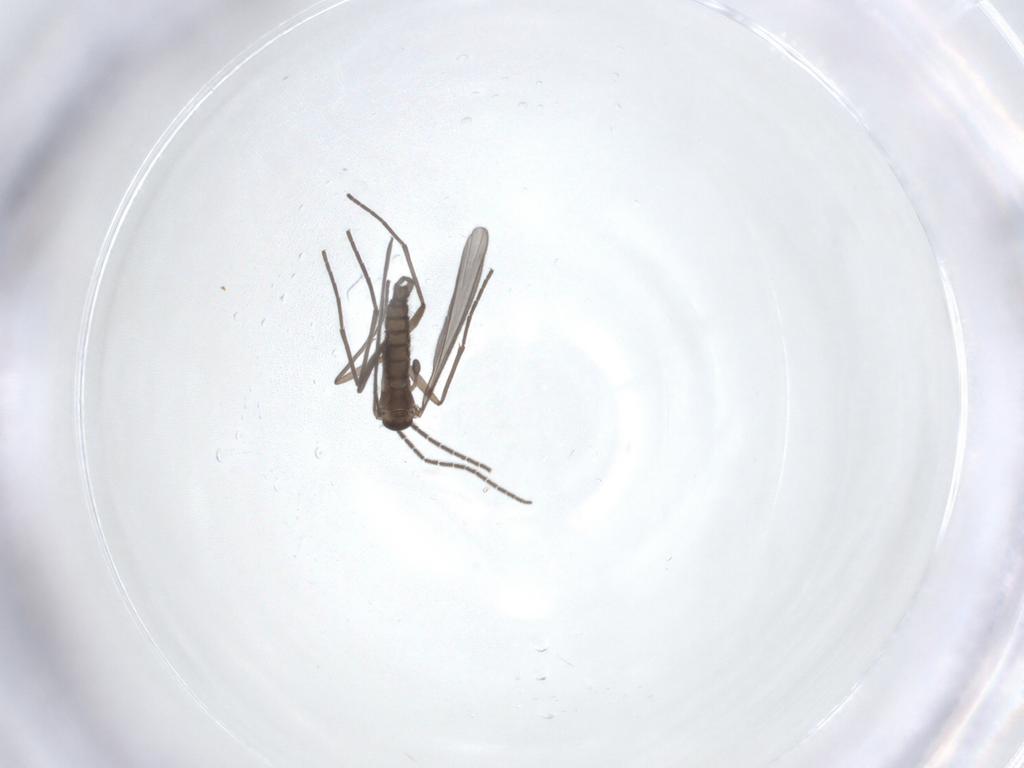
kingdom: Animalia
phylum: Arthropoda
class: Insecta
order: Diptera
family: Sciaridae
